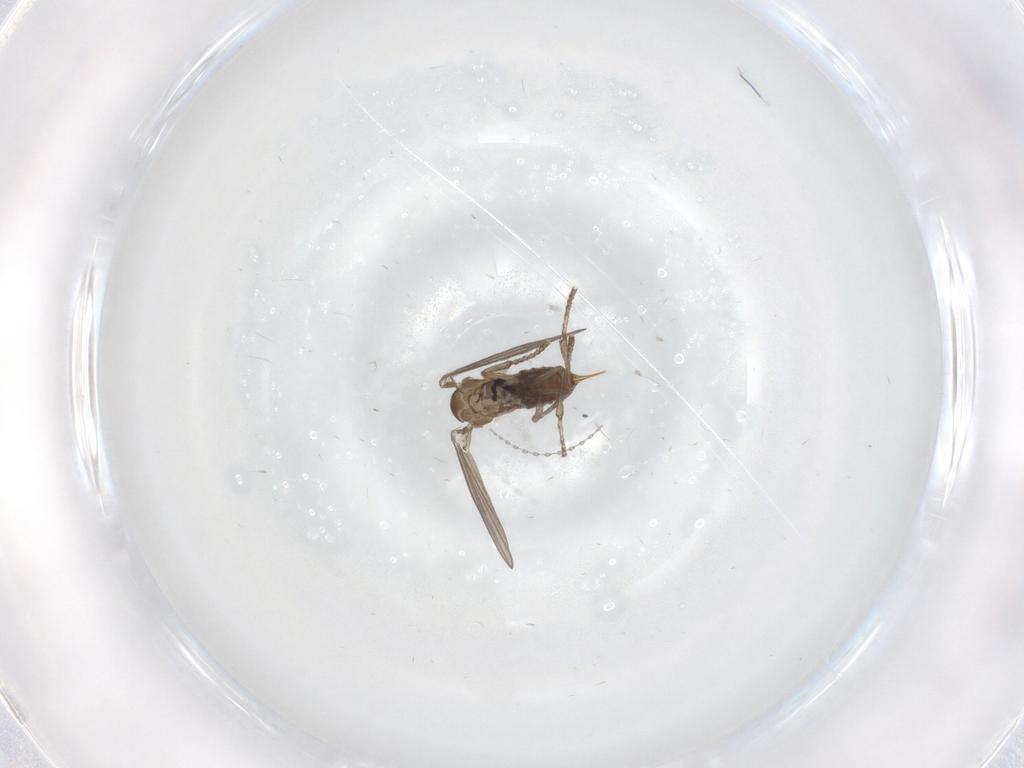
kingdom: Animalia
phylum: Arthropoda
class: Insecta
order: Diptera
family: Psychodidae
